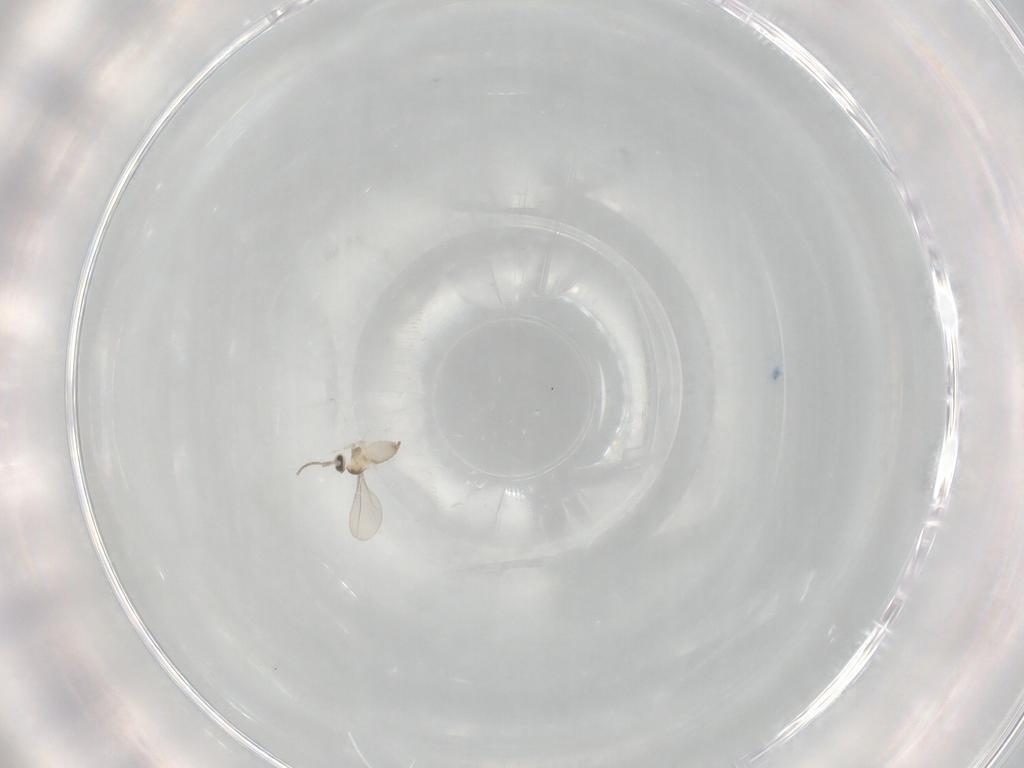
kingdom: Animalia
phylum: Arthropoda
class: Insecta
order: Diptera
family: Cecidomyiidae
